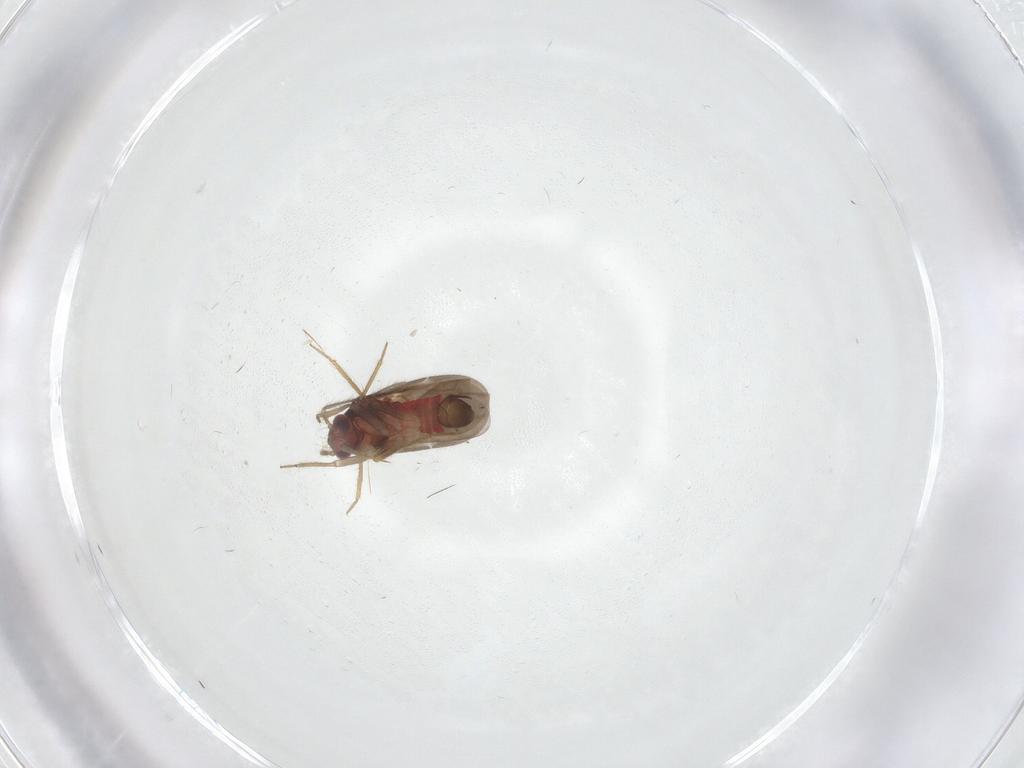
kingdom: Animalia
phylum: Arthropoda
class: Insecta
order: Hemiptera
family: Ceratocombidae
